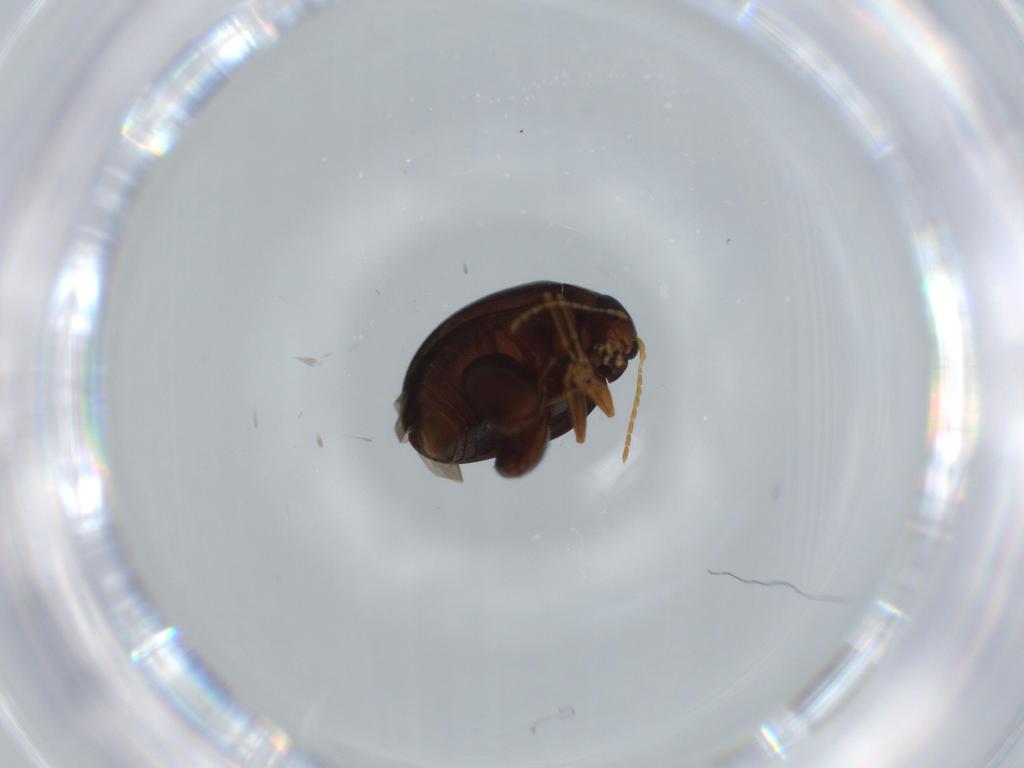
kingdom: Animalia
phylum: Arthropoda
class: Insecta
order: Coleoptera
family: Chrysomelidae
